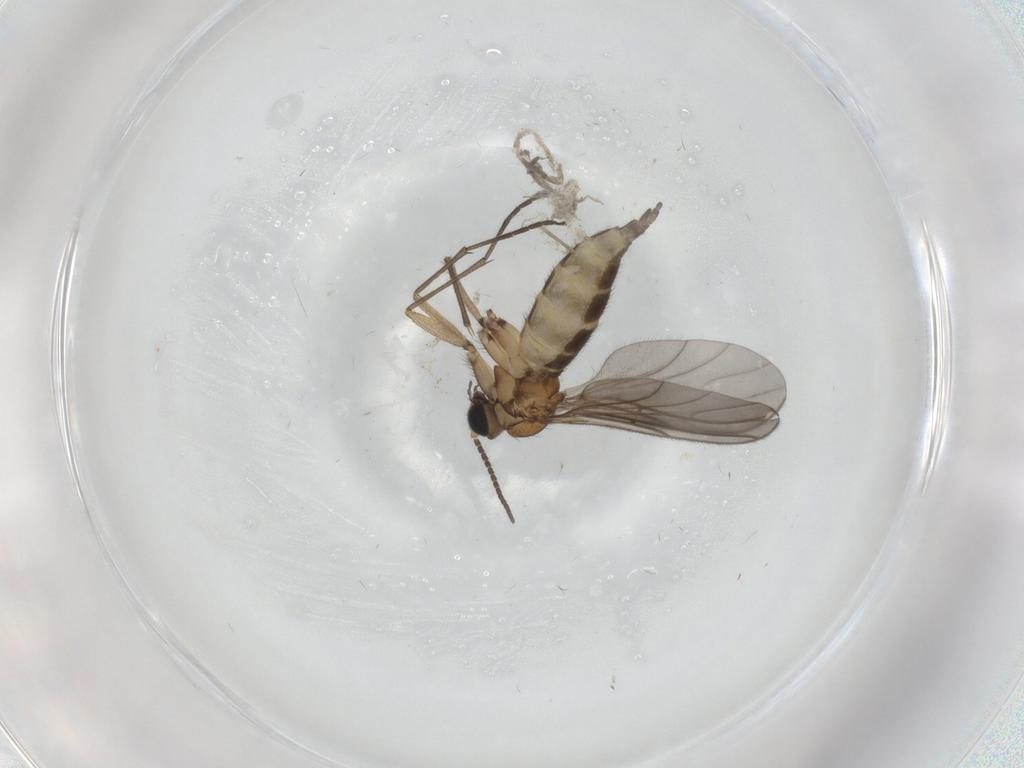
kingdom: Animalia
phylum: Arthropoda
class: Insecta
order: Diptera
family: Sciaridae
